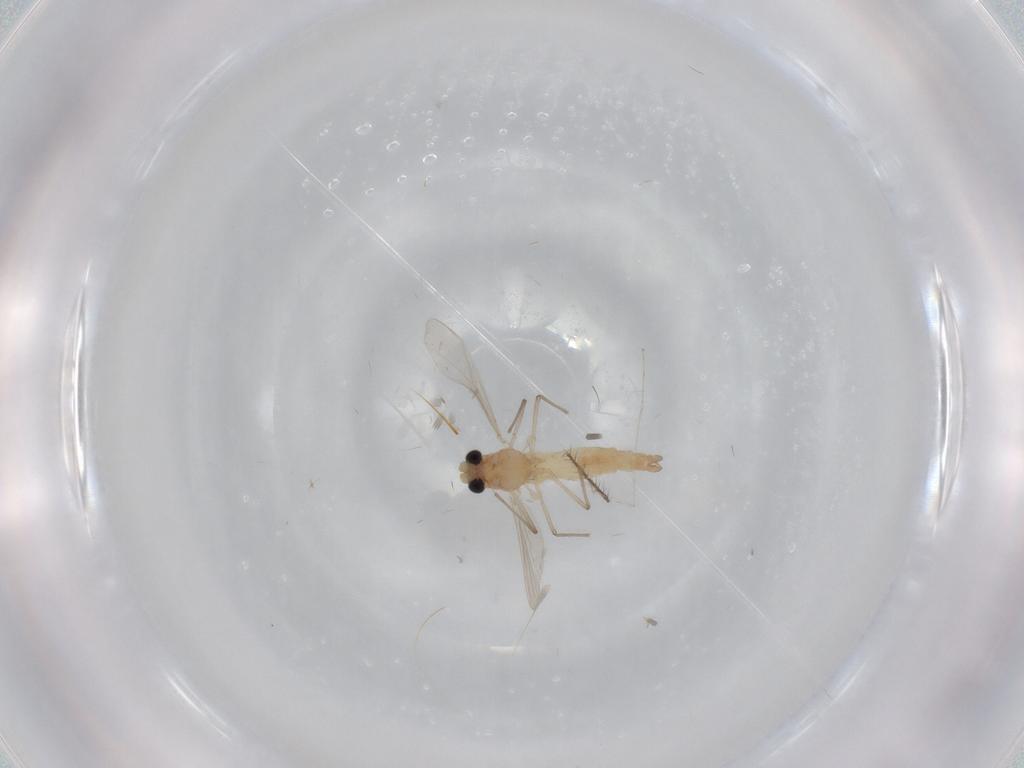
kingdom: Animalia
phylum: Arthropoda
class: Insecta
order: Diptera
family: Chironomidae
